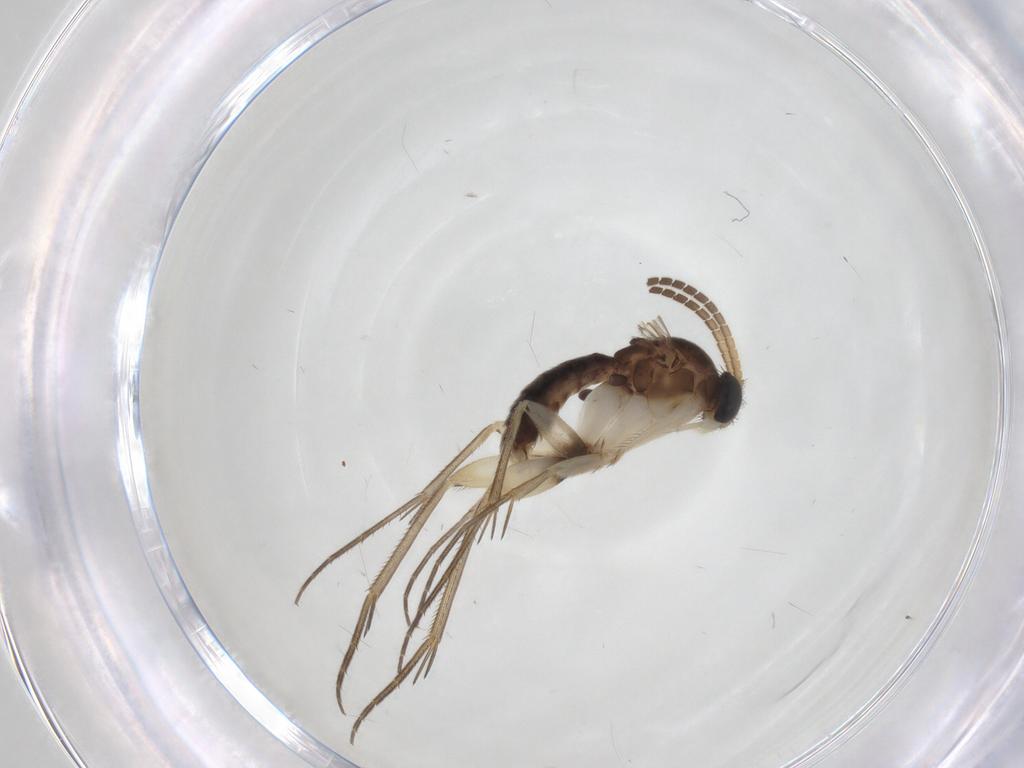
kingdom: Animalia
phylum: Arthropoda
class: Insecta
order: Diptera
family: Mycetophilidae
